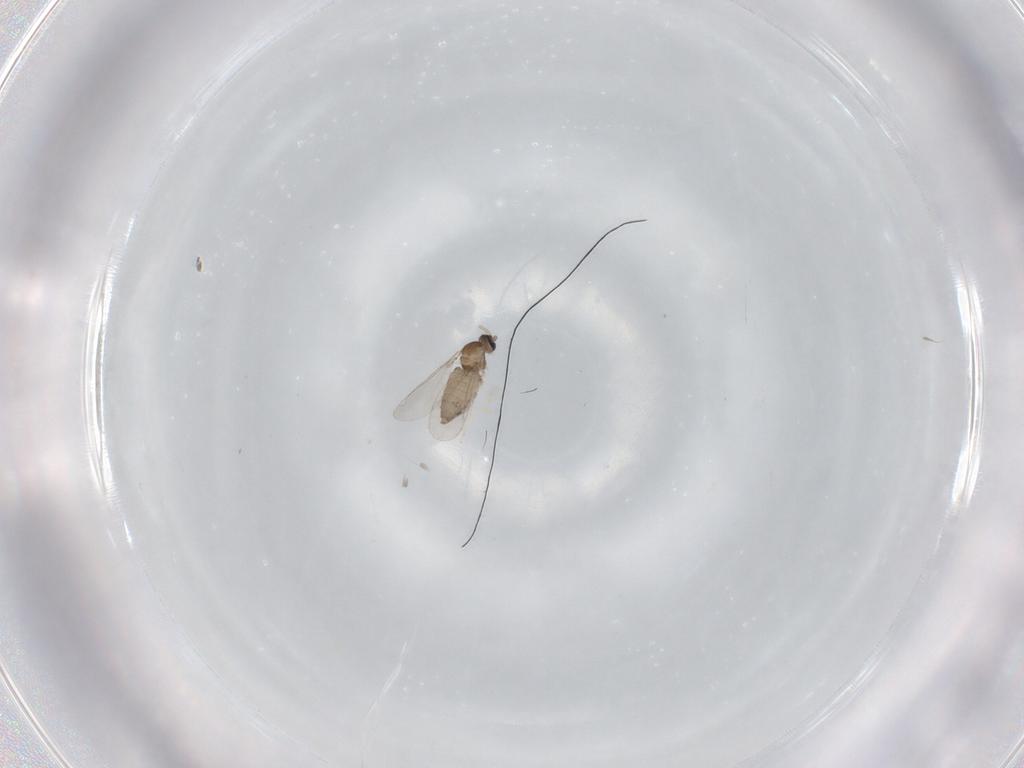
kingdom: Animalia
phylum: Arthropoda
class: Insecta
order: Diptera
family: Cecidomyiidae
